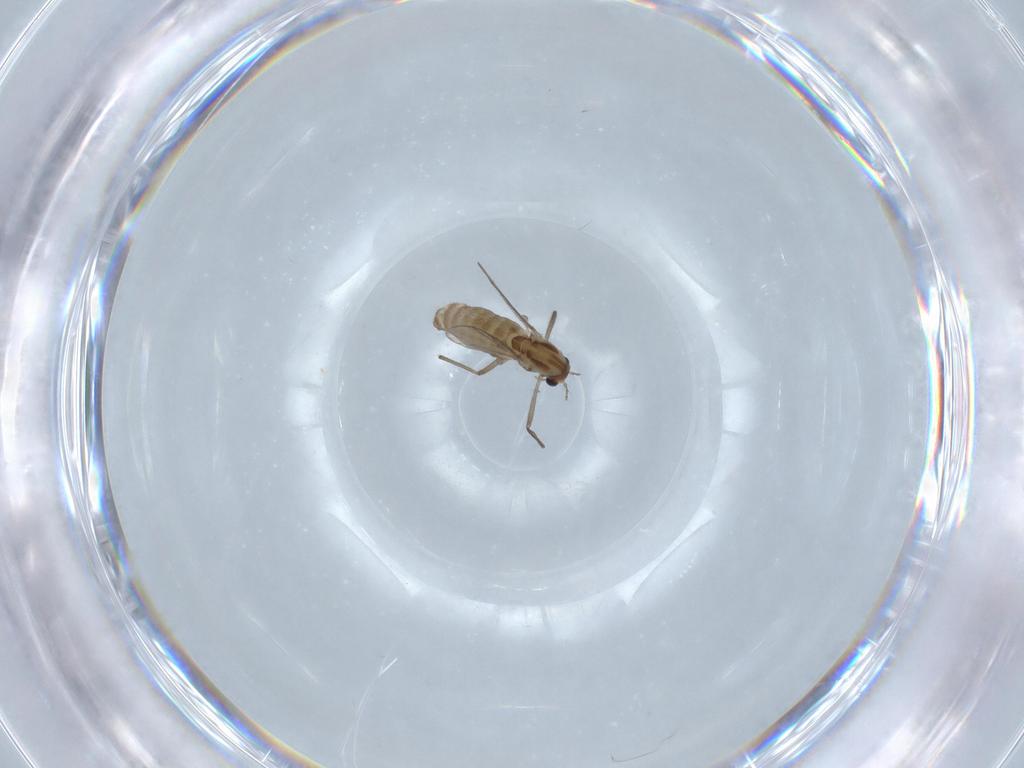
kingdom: Animalia
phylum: Arthropoda
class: Insecta
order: Diptera
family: Chironomidae
